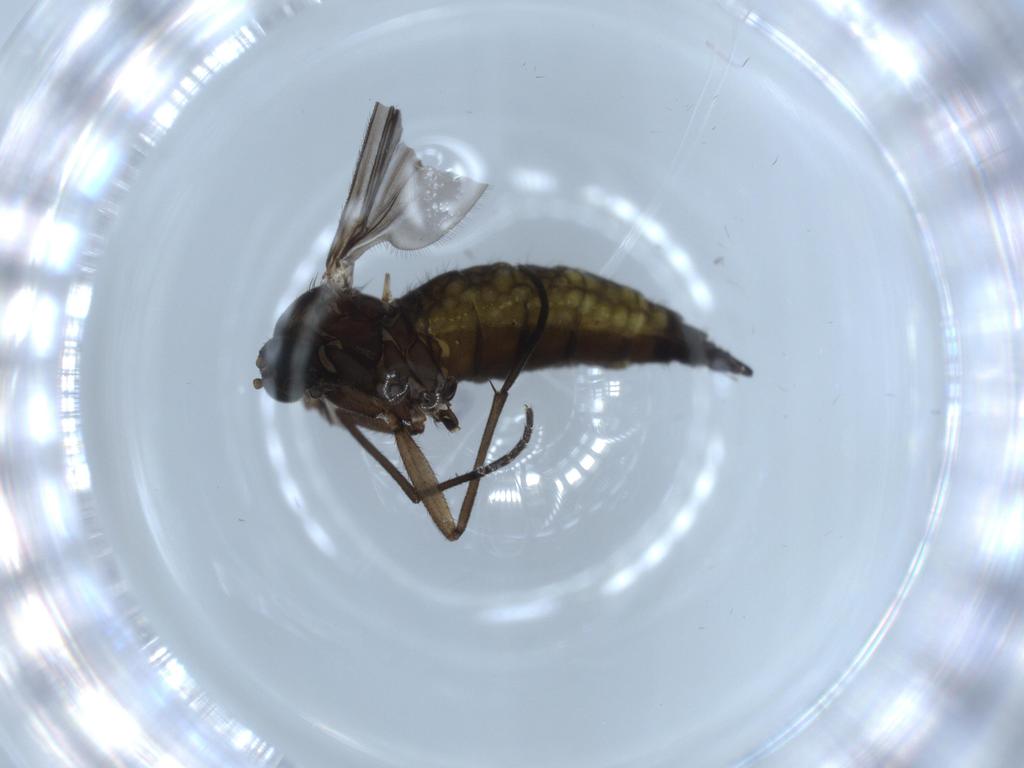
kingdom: Animalia
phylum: Arthropoda
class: Insecta
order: Diptera
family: Sciaridae
